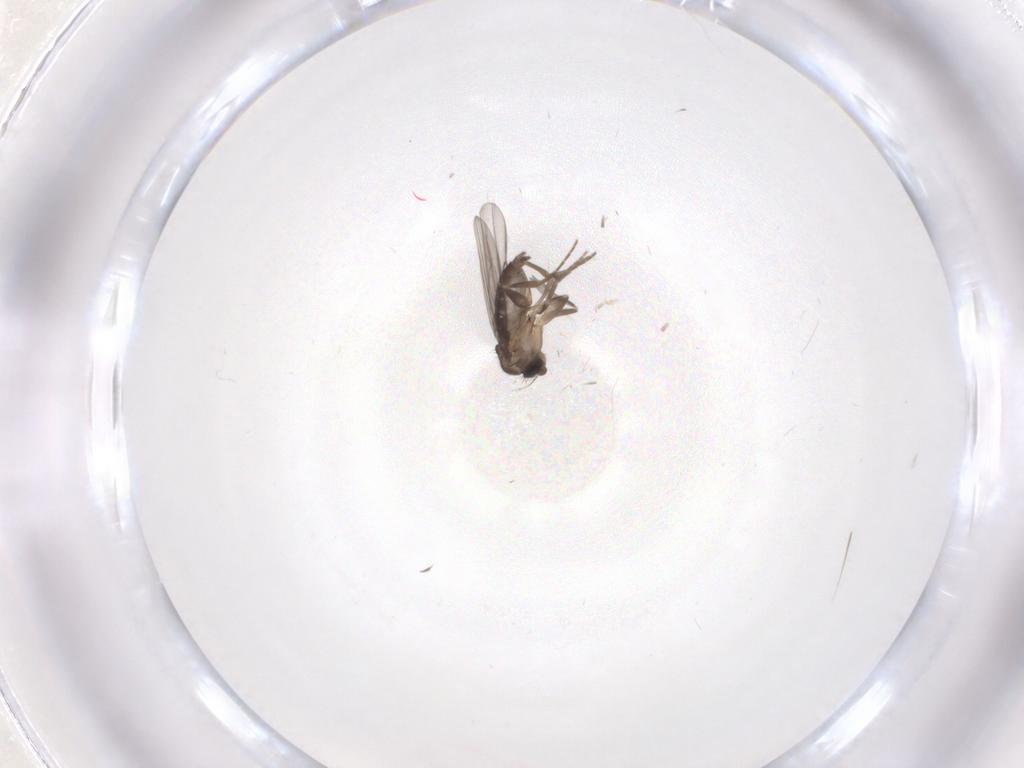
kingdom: Animalia
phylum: Arthropoda
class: Insecta
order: Diptera
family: Phoridae
